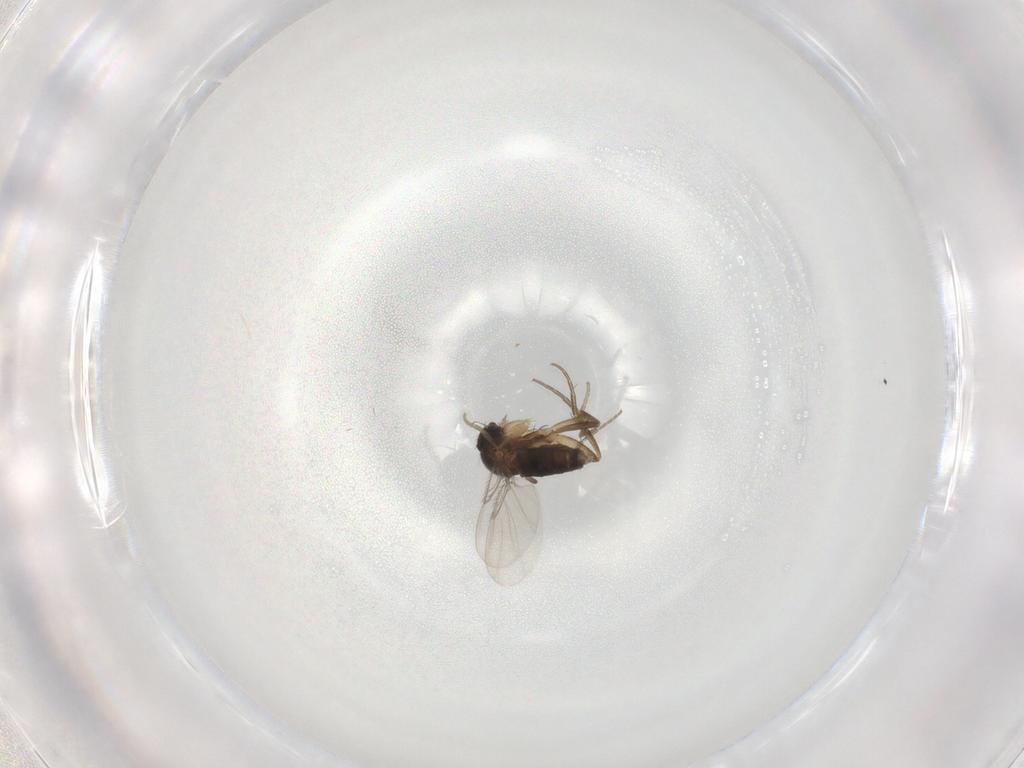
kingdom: Animalia
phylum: Arthropoda
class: Insecta
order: Diptera
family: Phoridae
